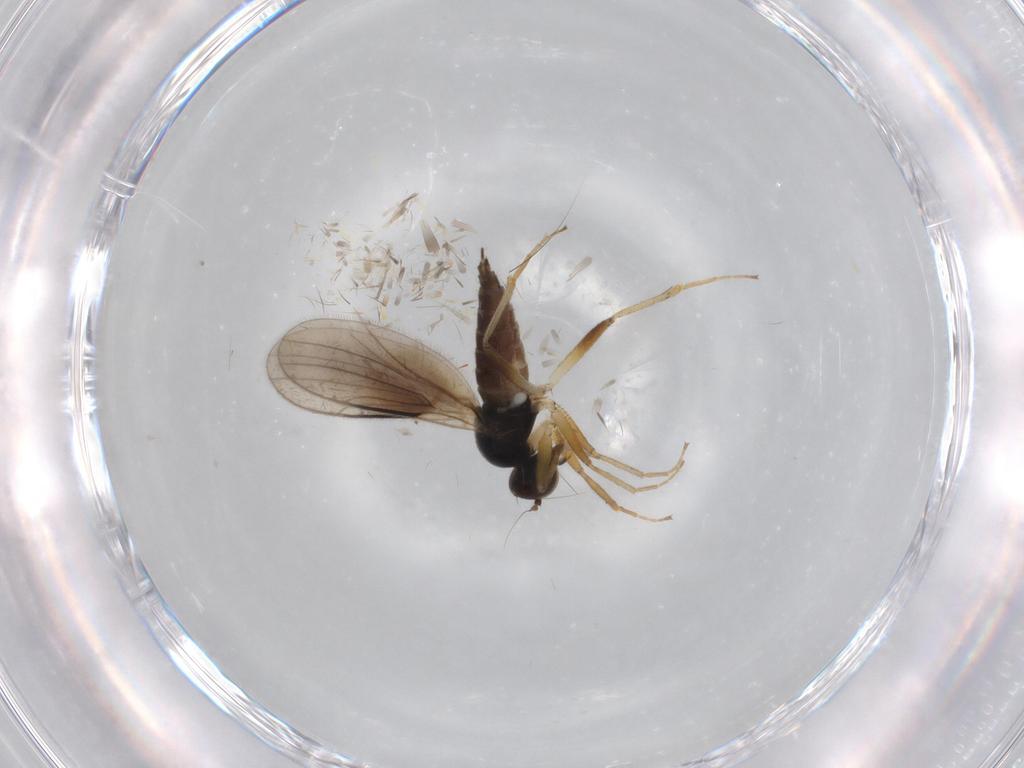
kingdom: Animalia
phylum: Arthropoda
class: Insecta
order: Diptera
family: Hybotidae
